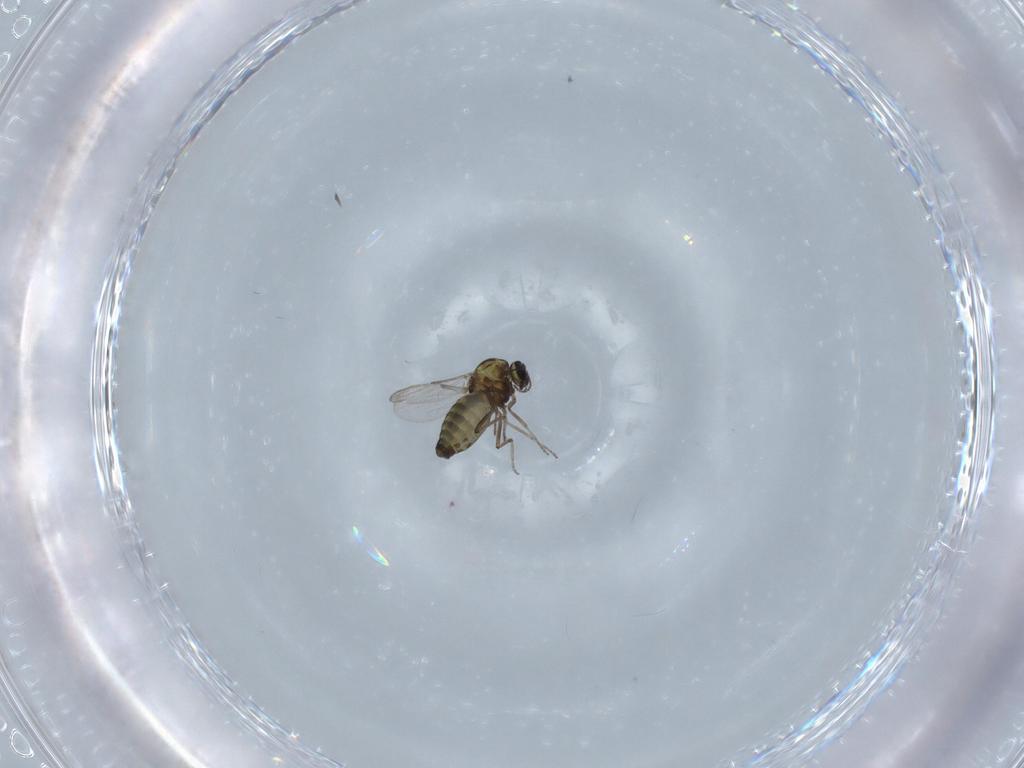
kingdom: Animalia
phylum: Arthropoda
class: Insecta
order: Diptera
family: Ceratopogonidae
